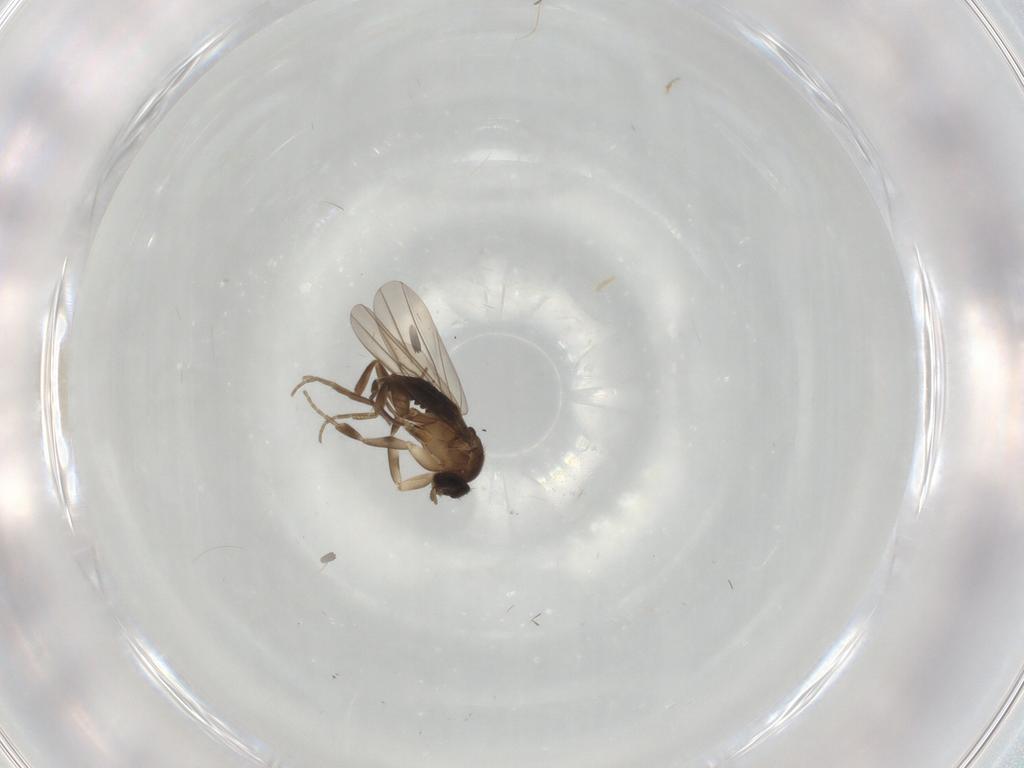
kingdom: Animalia
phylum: Arthropoda
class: Insecta
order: Diptera
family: Phoridae
